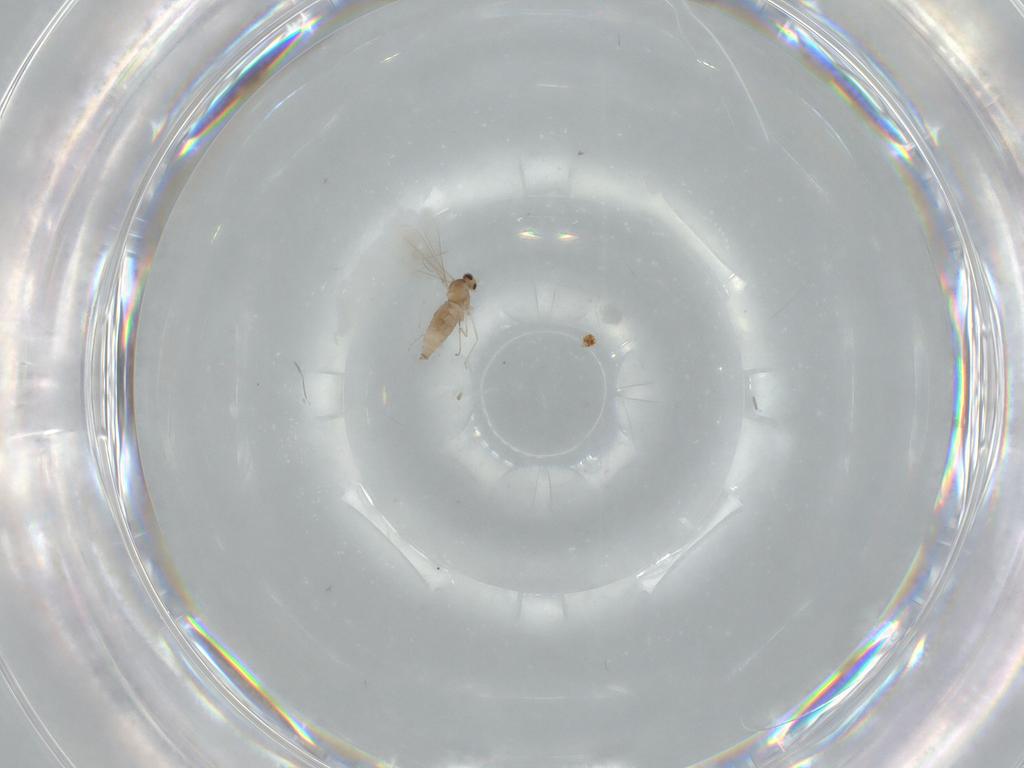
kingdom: Animalia
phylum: Arthropoda
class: Insecta
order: Diptera
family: Cecidomyiidae
